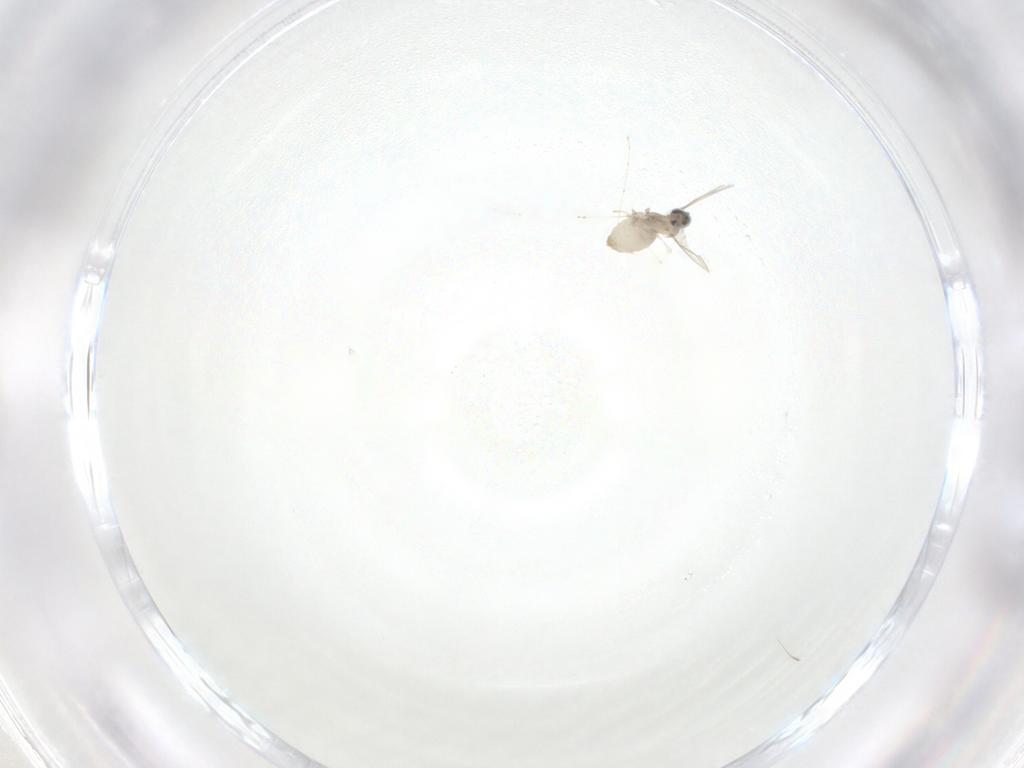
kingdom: Animalia
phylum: Arthropoda
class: Insecta
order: Diptera
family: Cecidomyiidae
